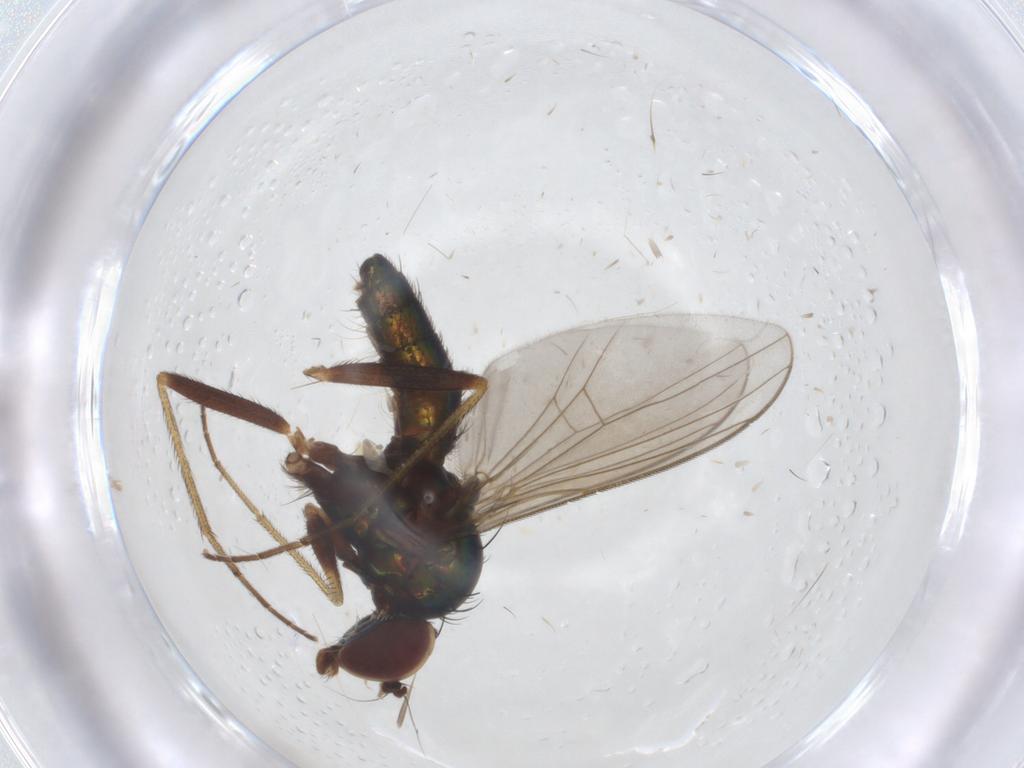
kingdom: Animalia
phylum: Arthropoda
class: Insecta
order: Diptera
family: Dolichopodidae
